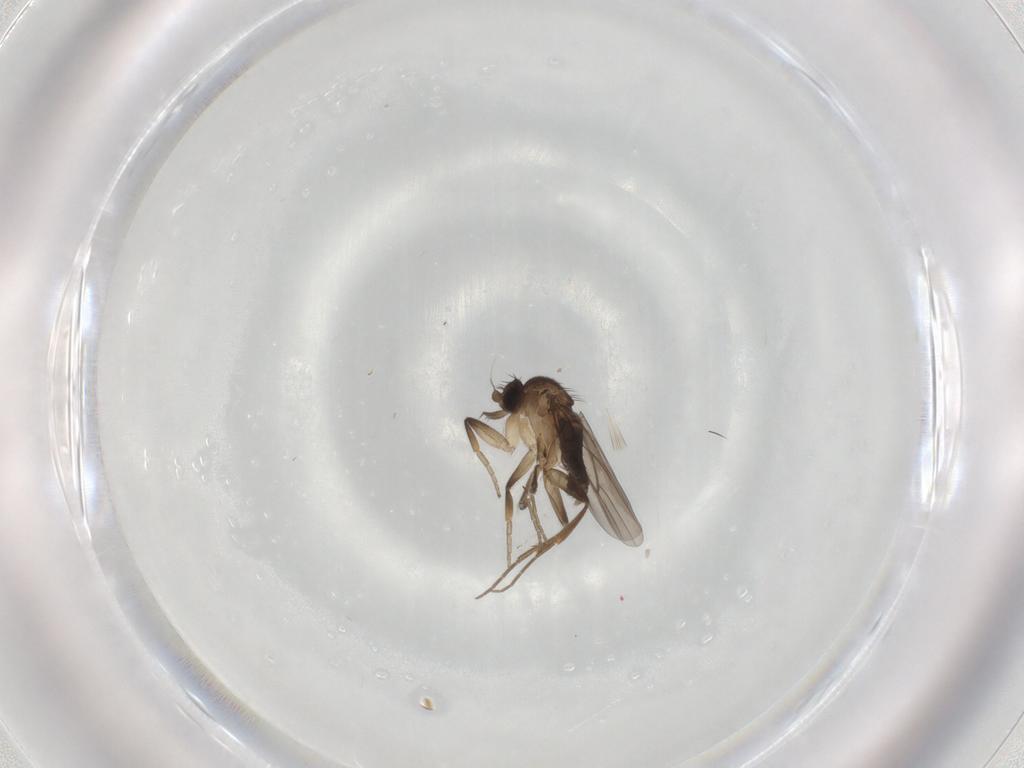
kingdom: Animalia
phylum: Arthropoda
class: Insecta
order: Diptera
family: Phoridae
